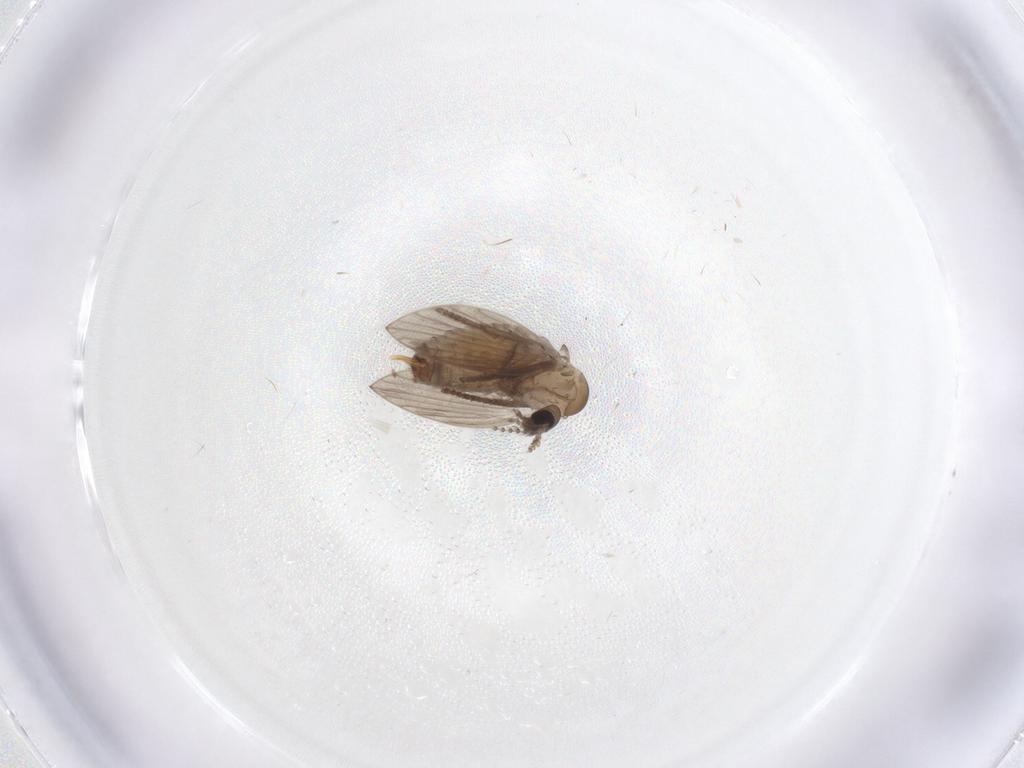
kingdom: Animalia
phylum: Arthropoda
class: Insecta
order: Diptera
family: Psychodidae
